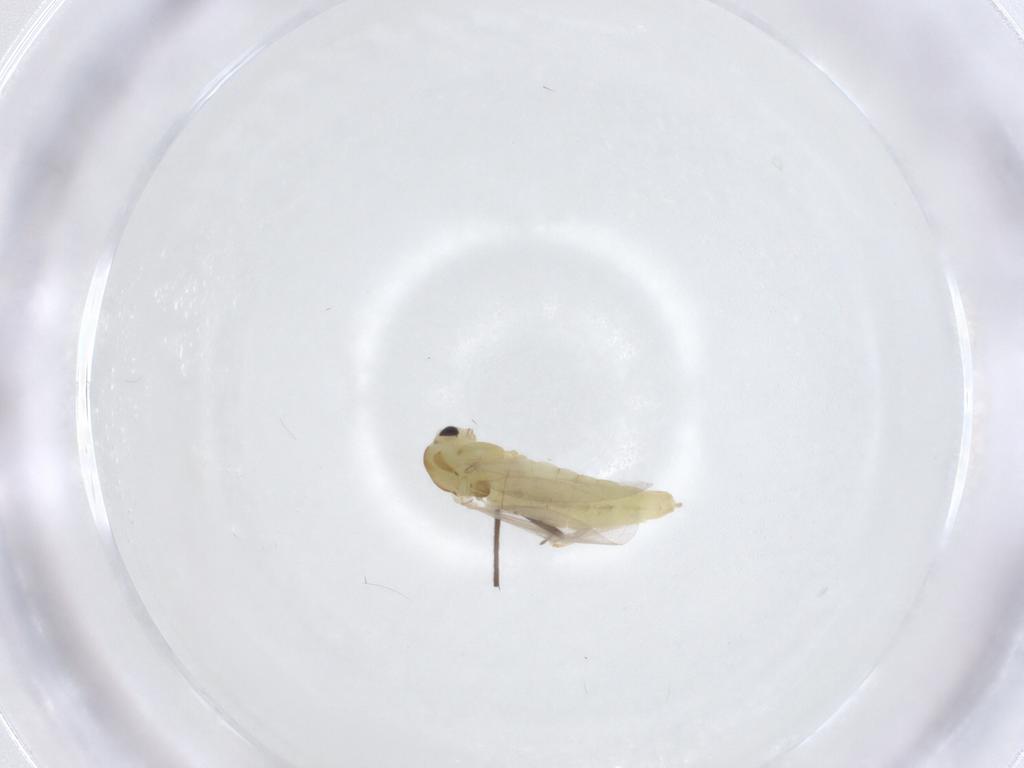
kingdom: Animalia
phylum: Arthropoda
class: Insecta
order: Diptera
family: Chironomidae
